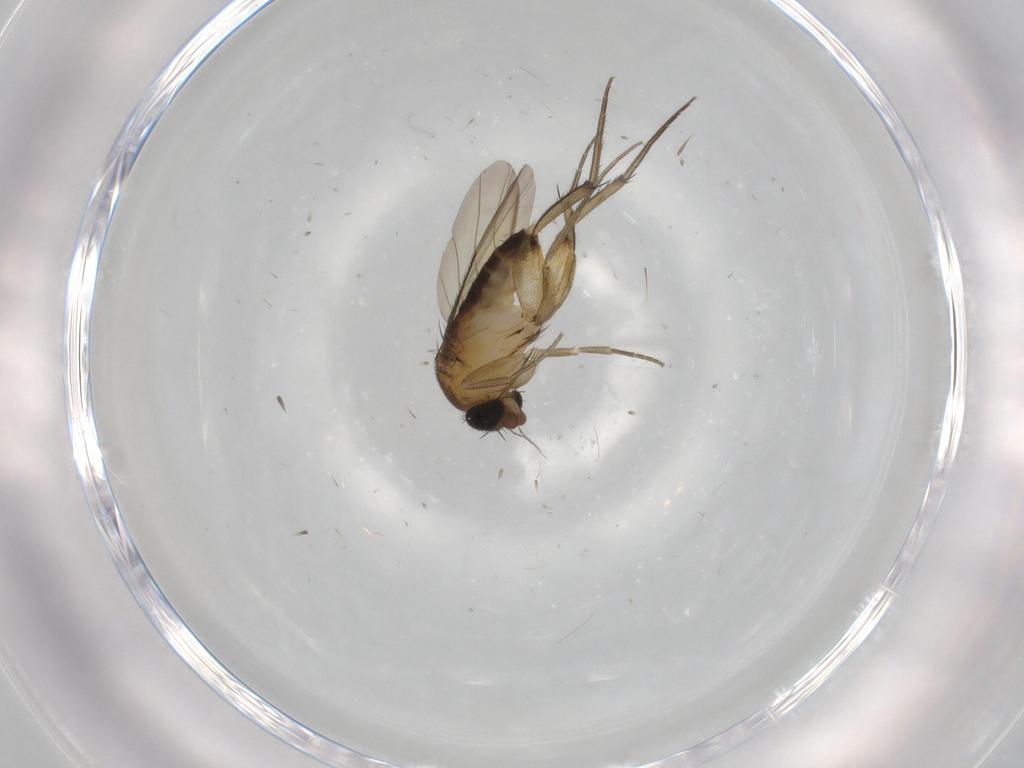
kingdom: Animalia
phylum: Arthropoda
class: Insecta
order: Diptera
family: Phoridae
